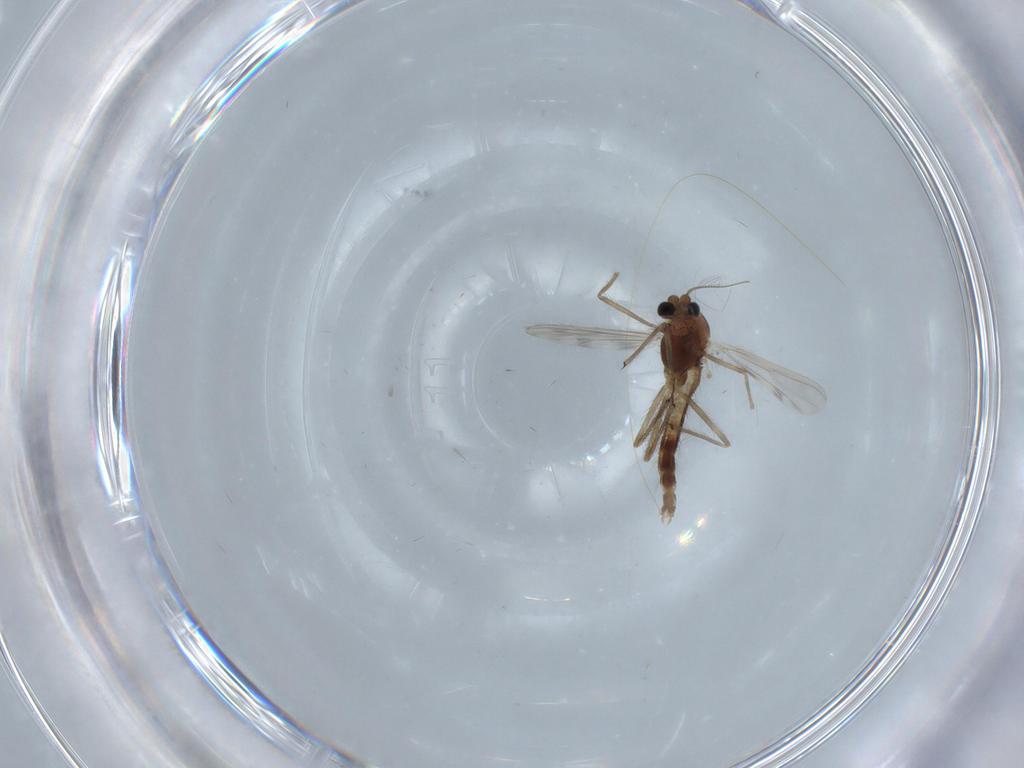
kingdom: Animalia
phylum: Arthropoda
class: Insecta
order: Diptera
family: Chironomidae
